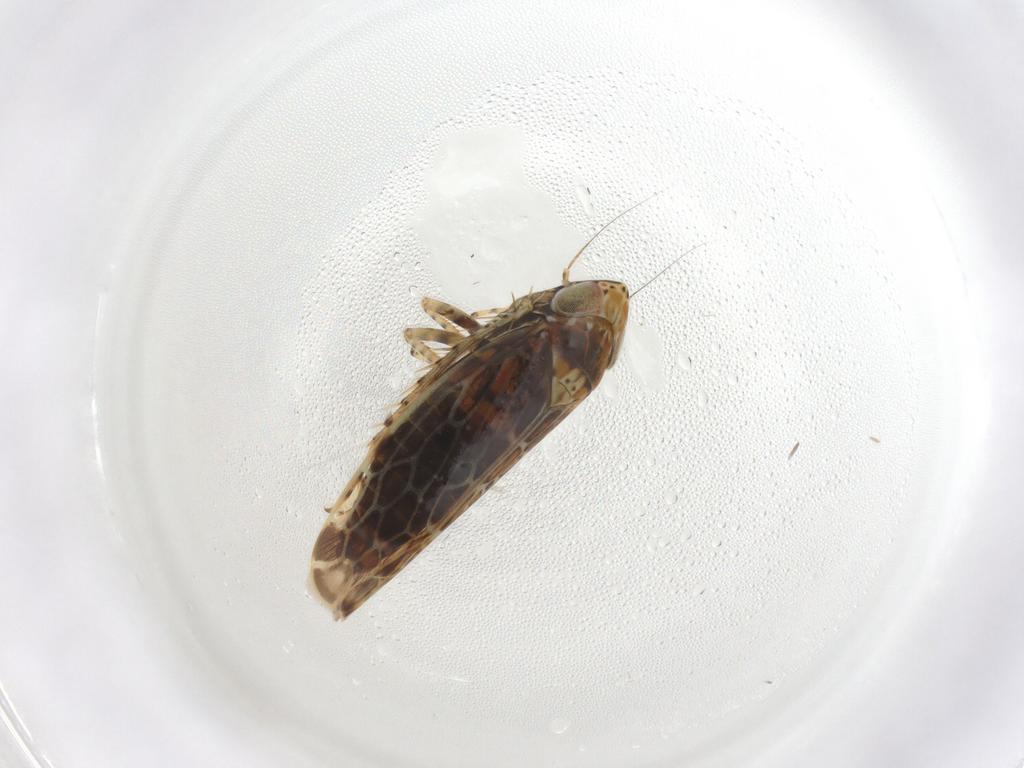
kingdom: Animalia
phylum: Arthropoda
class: Insecta
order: Hemiptera
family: Cicadellidae
